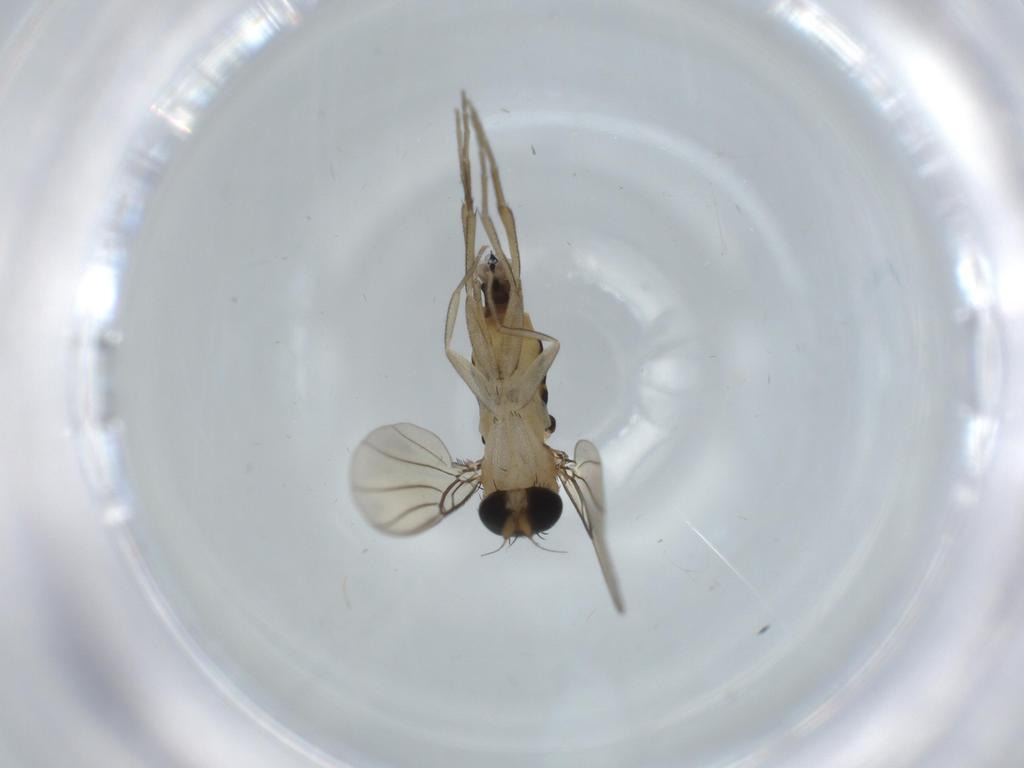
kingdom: Animalia
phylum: Arthropoda
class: Insecta
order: Diptera
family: Phoridae
